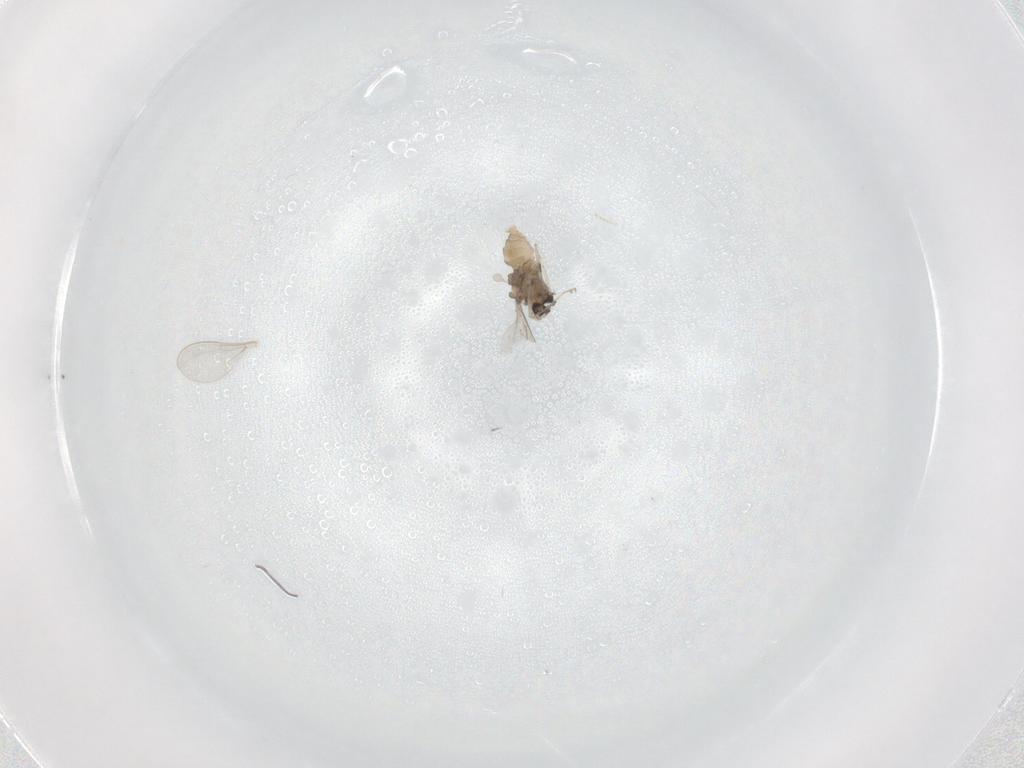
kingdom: Animalia
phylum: Arthropoda
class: Insecta
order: Diptera
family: Cecidomyiidae
